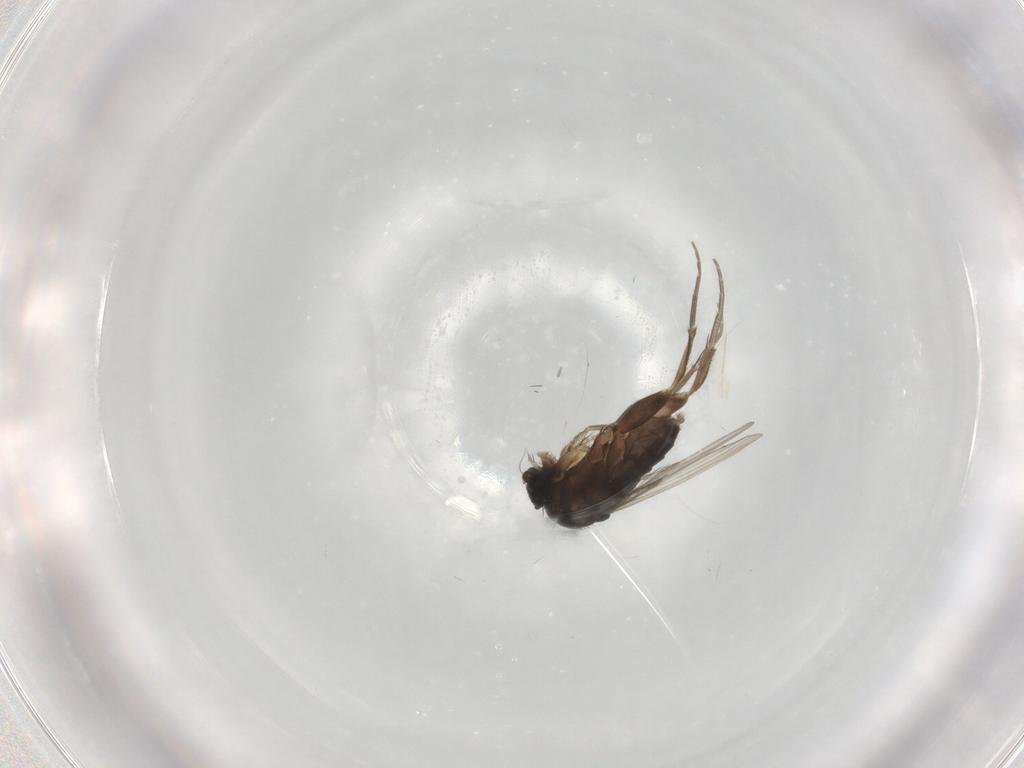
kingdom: Animalia
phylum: Arthropoda
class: Insecta
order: Diptera
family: Phoridae
